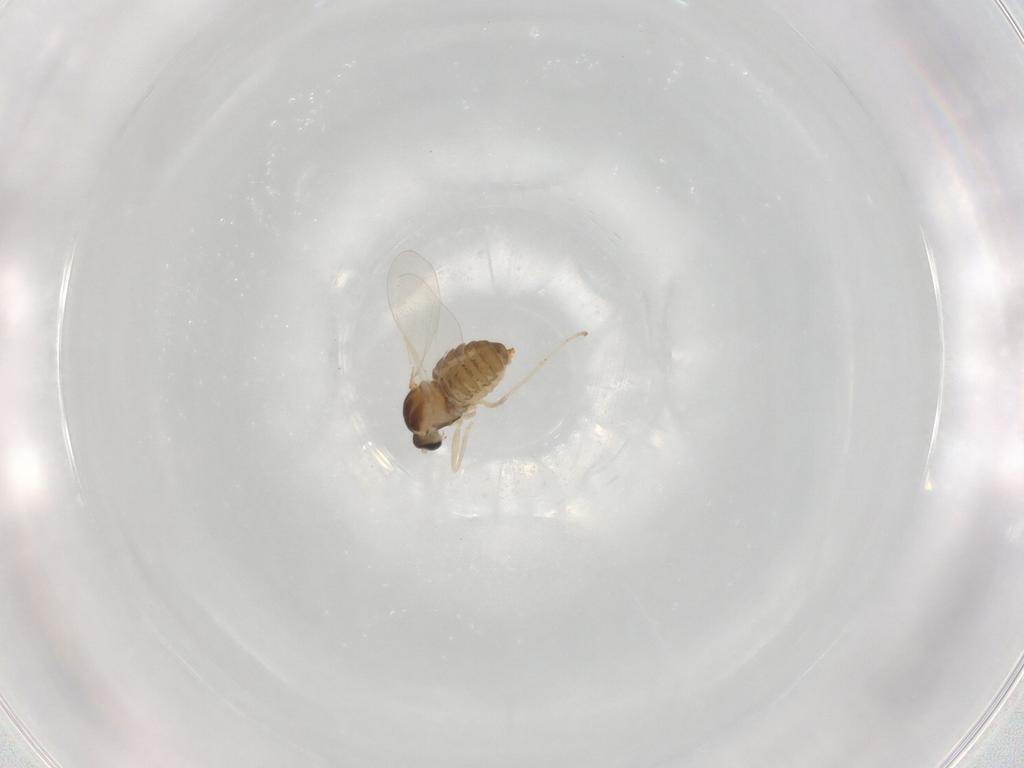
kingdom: Animalia
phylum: Arthropoda
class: Insecta
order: Diptera
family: Cecidomyiidae
